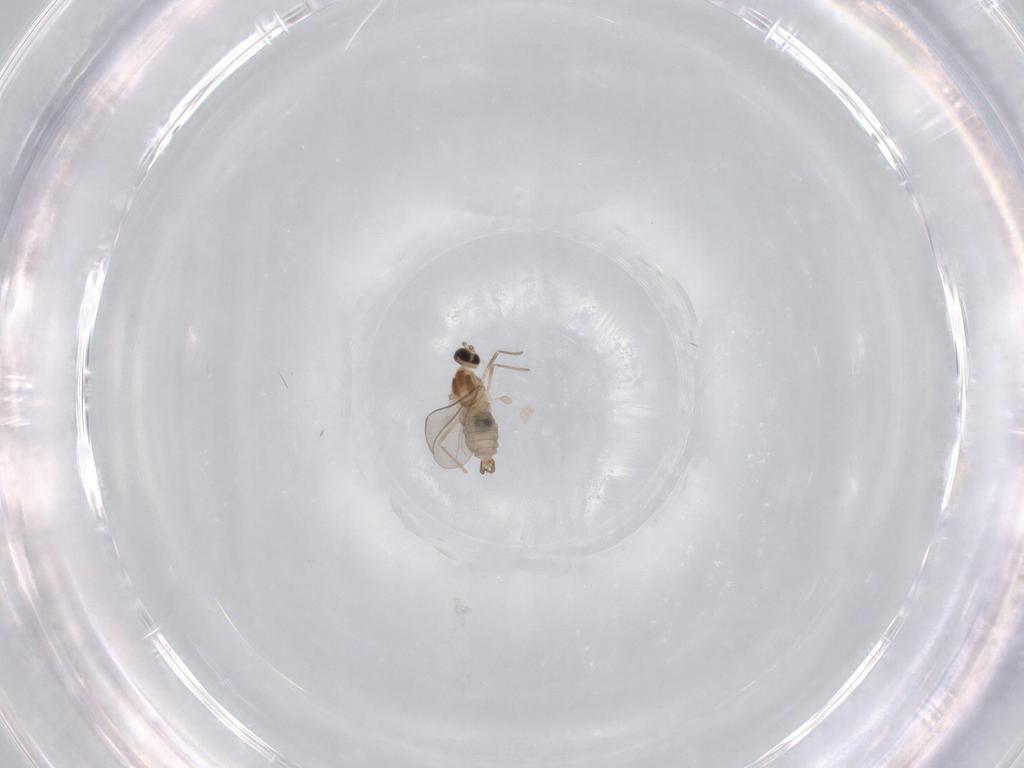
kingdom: Animalia
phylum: Arthropoda
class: Insecta
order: Diptera
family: Cecidomyiidae
